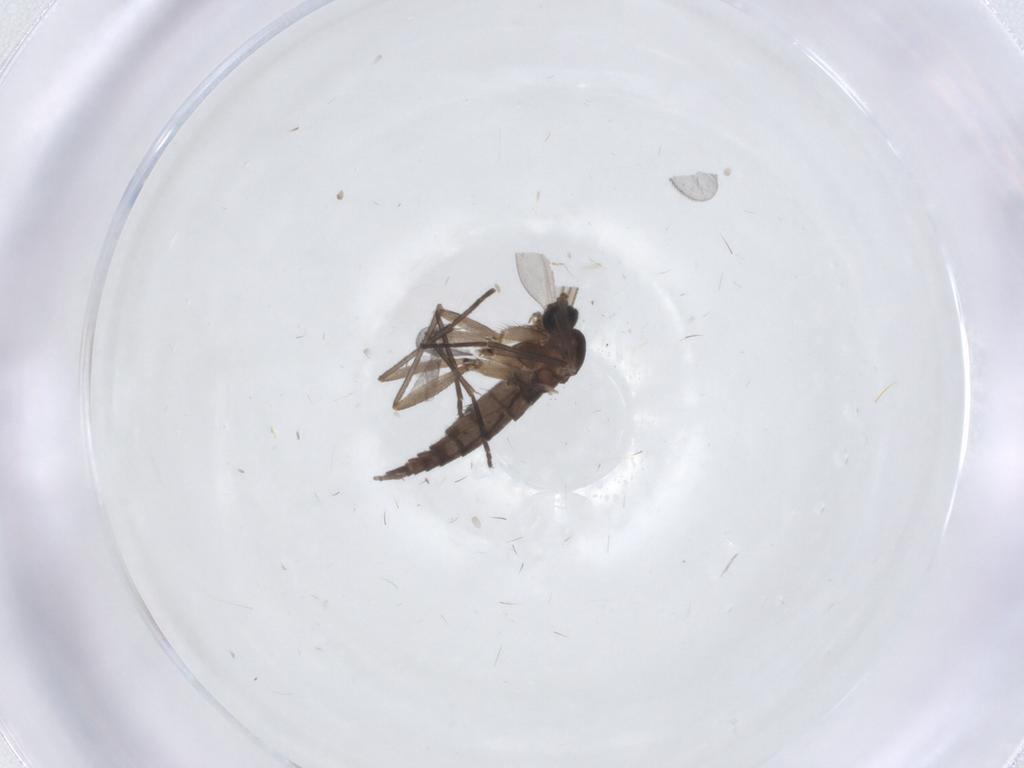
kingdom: Animalia
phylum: Arthropoda
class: Insecta
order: Diptera
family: Sciaridae
